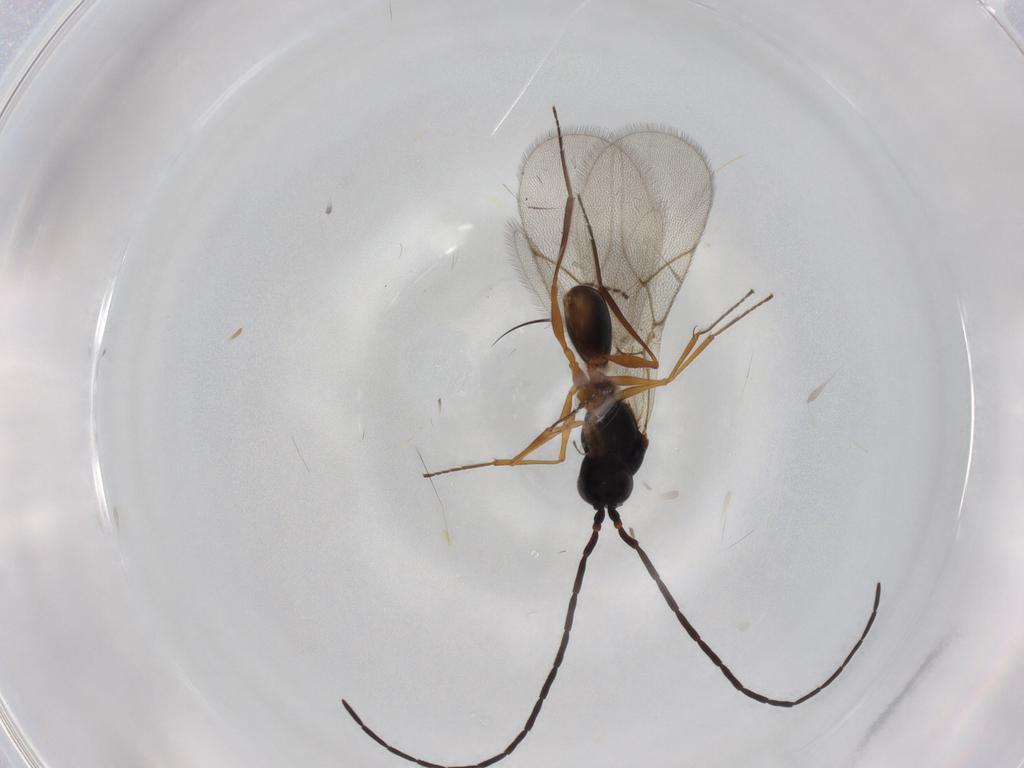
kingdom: Animalia
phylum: Arthropoda
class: Insecta
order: Hymenoptera
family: Figitidae
